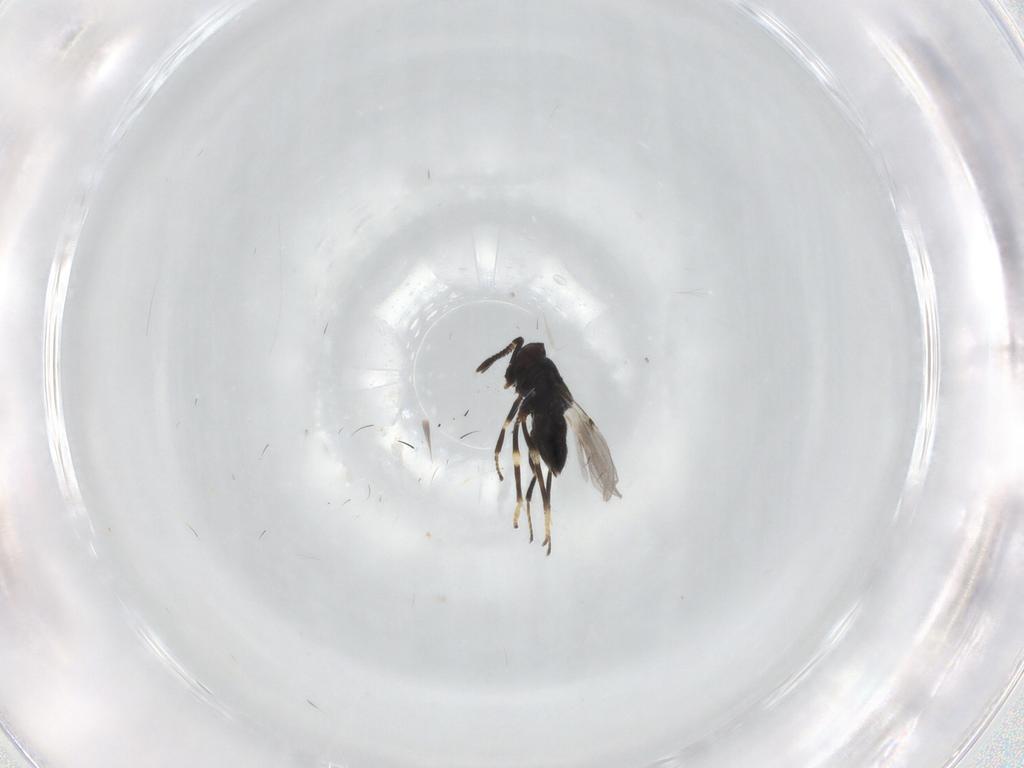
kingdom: Animalia
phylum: Arthropoda
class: Insecta
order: Hymenoptera
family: Encyrtidae
